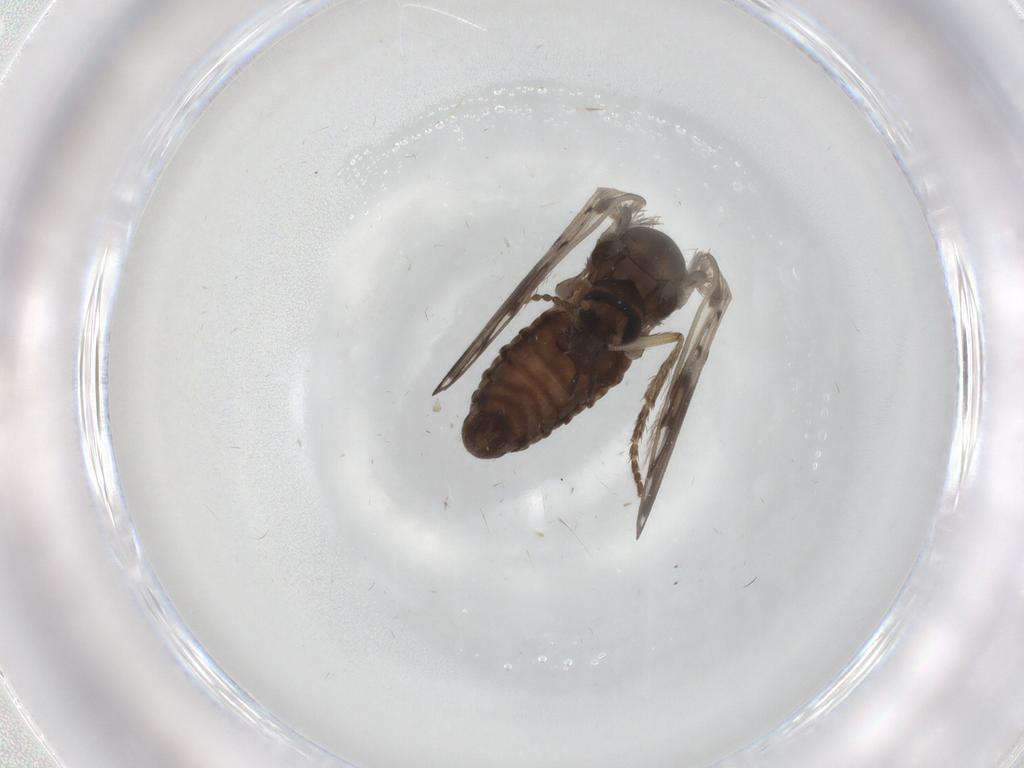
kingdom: Animalia
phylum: Arthropoda
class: Insecta
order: Diptera
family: Psychodidae
